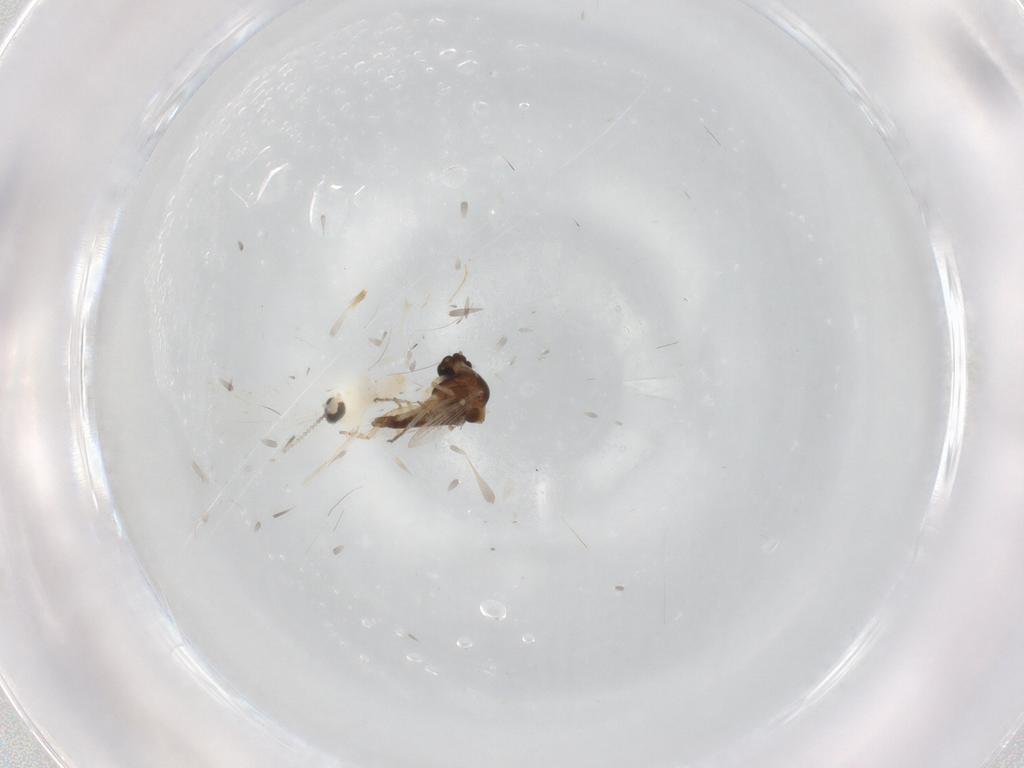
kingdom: Animalia
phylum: Arthropoda
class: Insecta
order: Diptera
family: Cecidomyiidae
